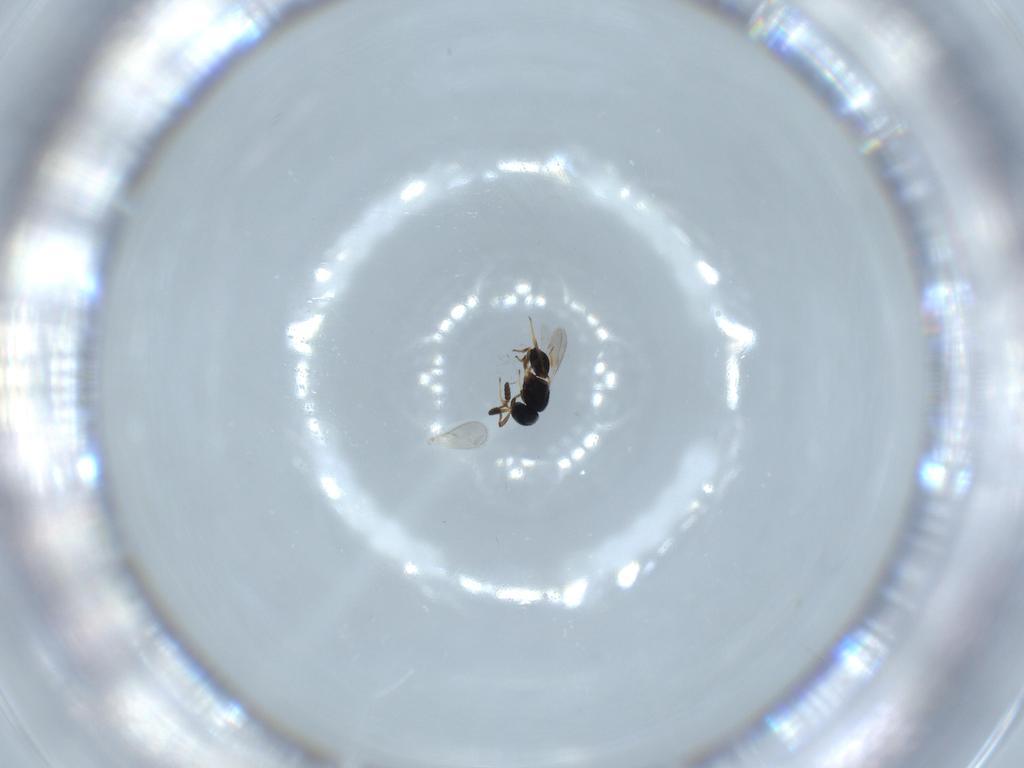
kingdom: Animalia
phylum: Arthropoda
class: Insecta
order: Hymenoptera
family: Scelionidae
